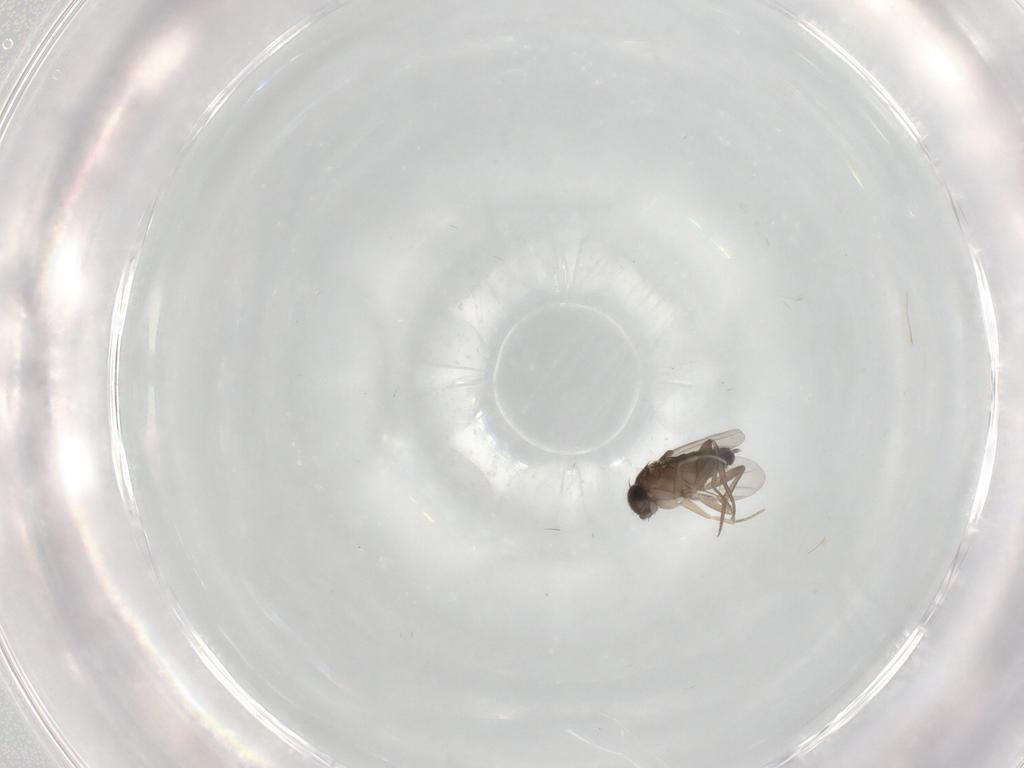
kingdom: Animalia
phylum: Arthropoda
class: Insecta
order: Diptera
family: Phoridae
